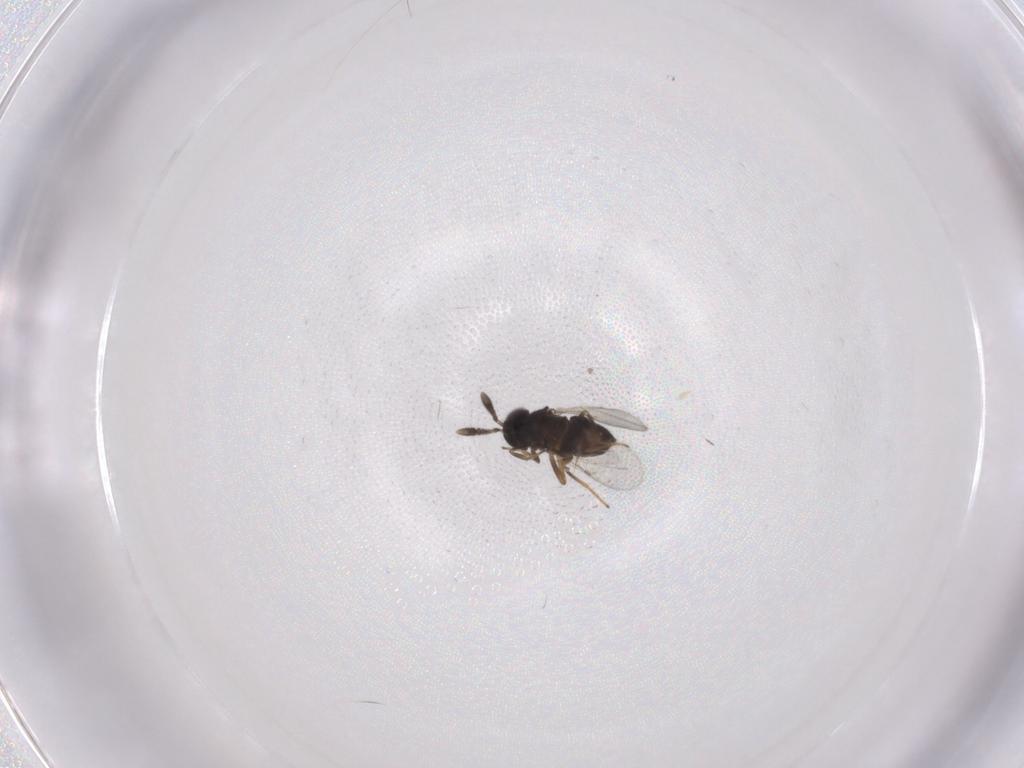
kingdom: Animalia
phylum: Arthropoda
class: Insecta
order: Hymenoptera
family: Encyrtidae
